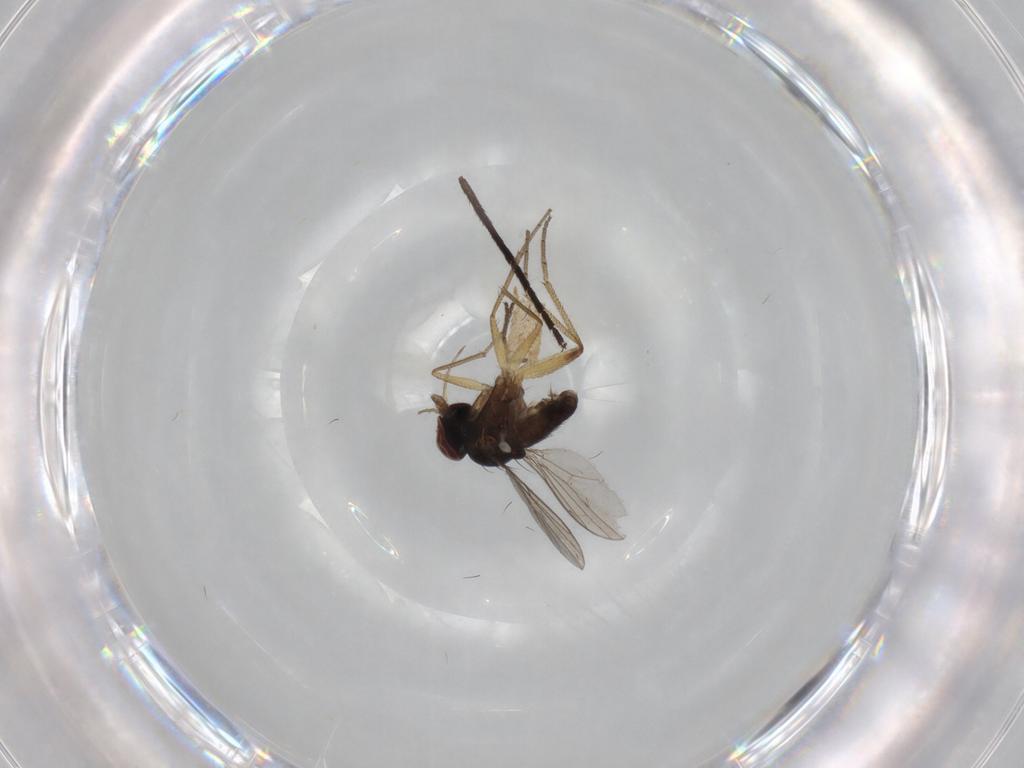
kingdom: Animalia
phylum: Arthropoda
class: Insecta
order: Diptera
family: Dolichopodidae
